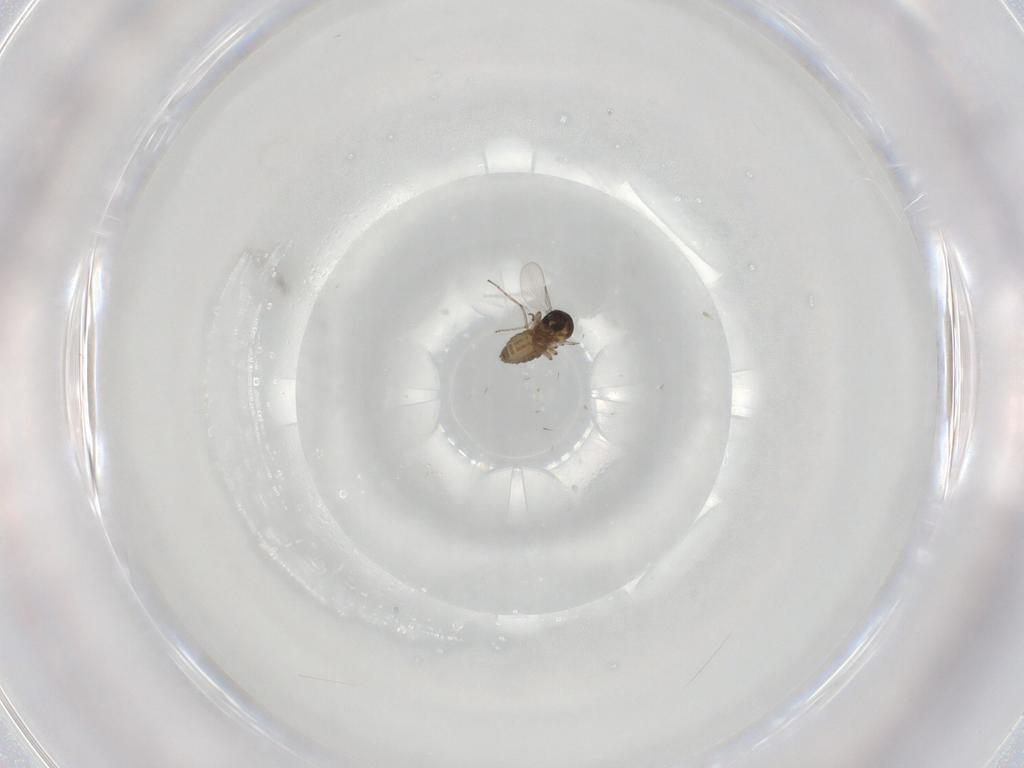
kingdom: Animalia
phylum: Arthropoda
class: Insecta
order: Diptera
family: Ceratopogonidae
